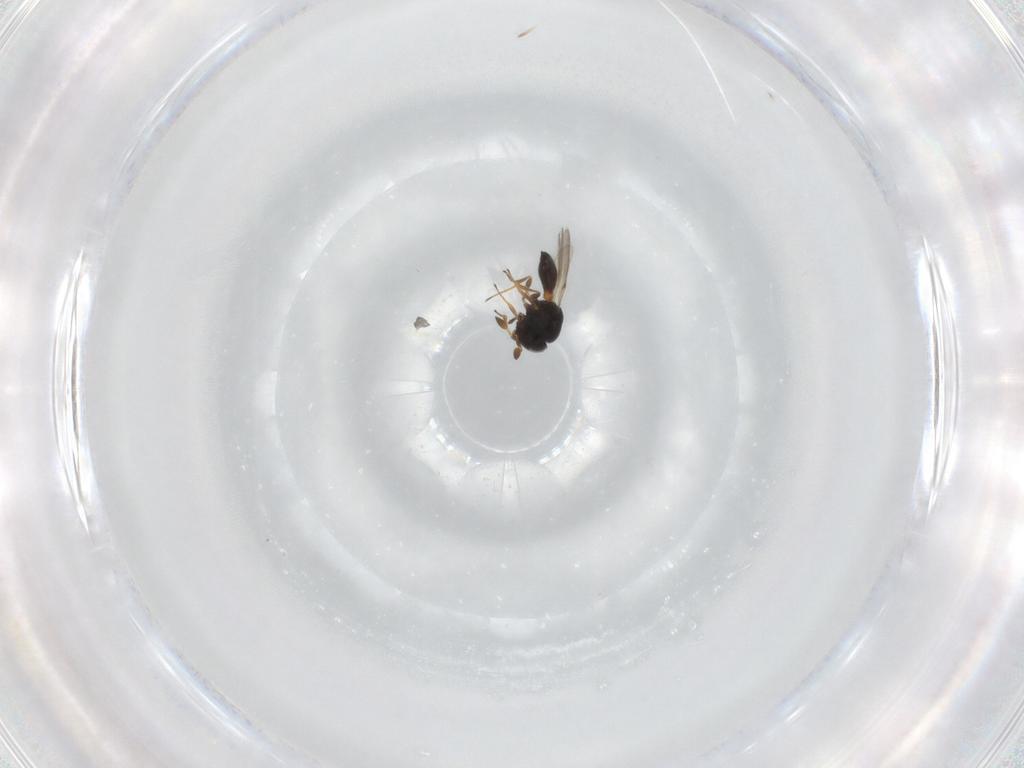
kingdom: Animalia
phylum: Arthropoda
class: Insecta
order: Hymenoptera
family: Scelionidae
